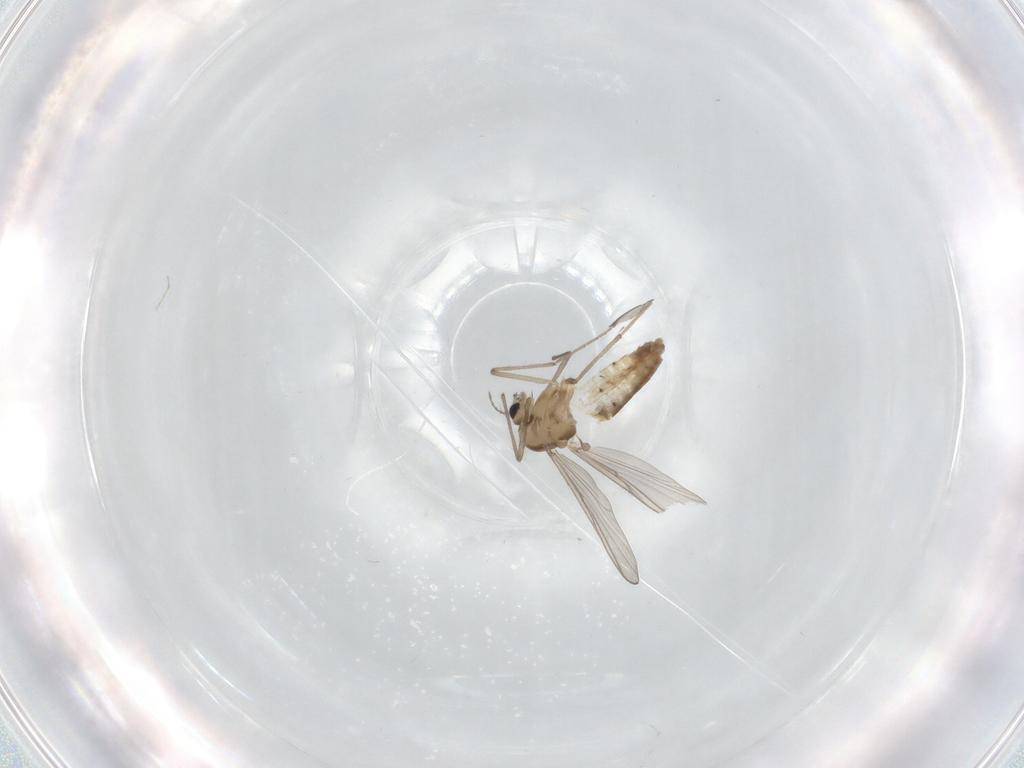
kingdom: Animalia
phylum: Arthropoda
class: Insecta
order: Diptera
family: Chironomidae
